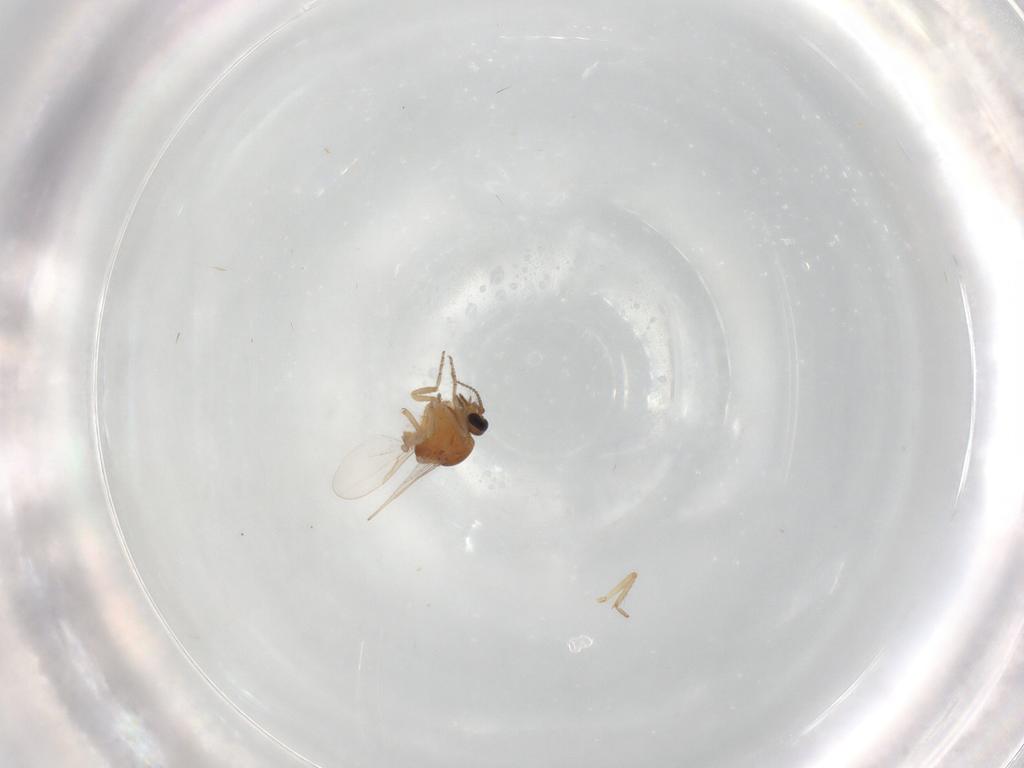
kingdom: Animalia
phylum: Arthropoda
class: Insecta
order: Diptera
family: Ceratopogonidae
